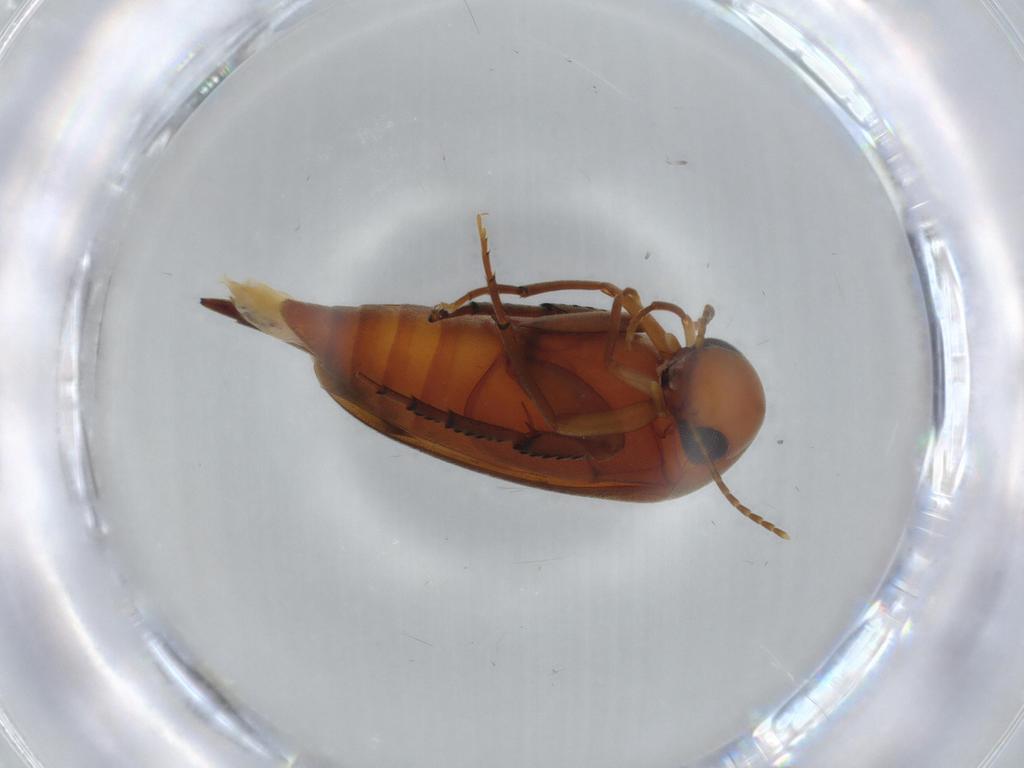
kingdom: Animalia
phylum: Arthropoda
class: Insecta
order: Coleoptera
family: Mordellidae
